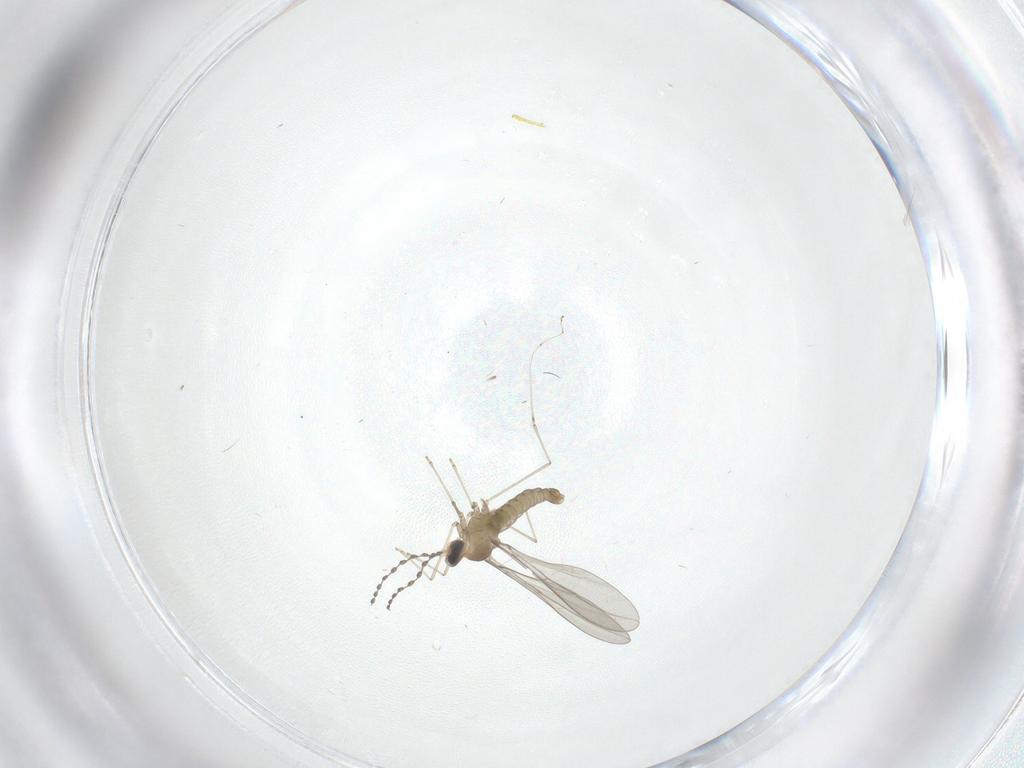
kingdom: Animalia
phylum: Arthropoda
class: Insecta
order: Diptera
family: Cecidomyiidae
